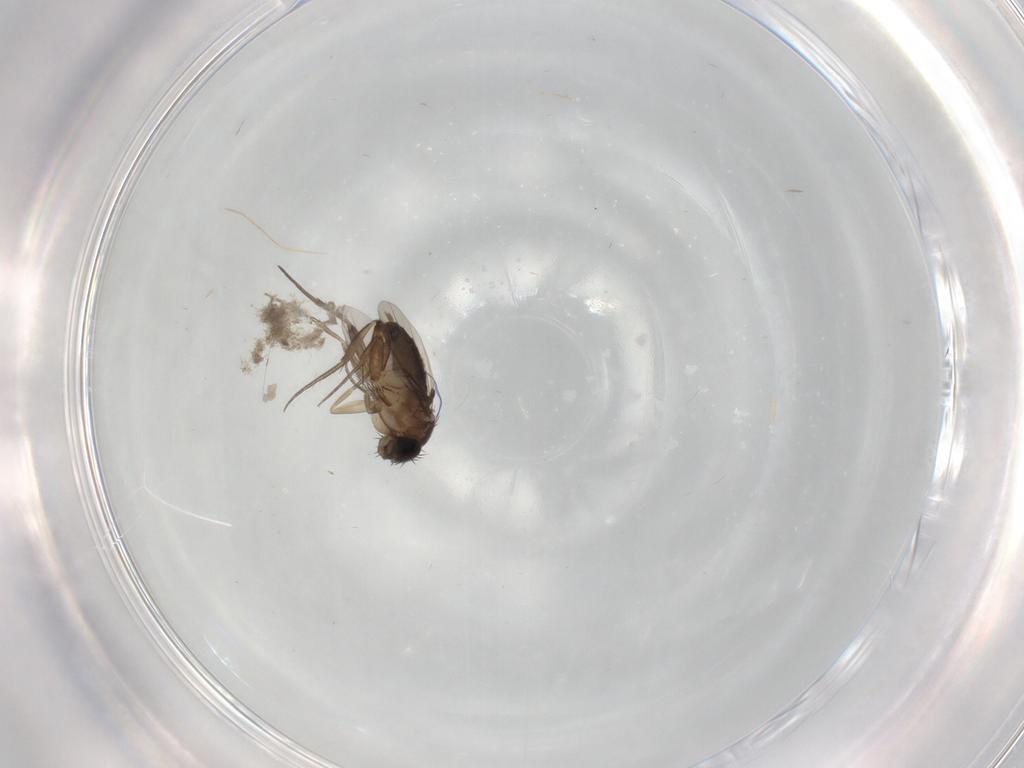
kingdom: Animalia
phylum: Arthropoda
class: Insecta
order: Diptera
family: Phoridae
